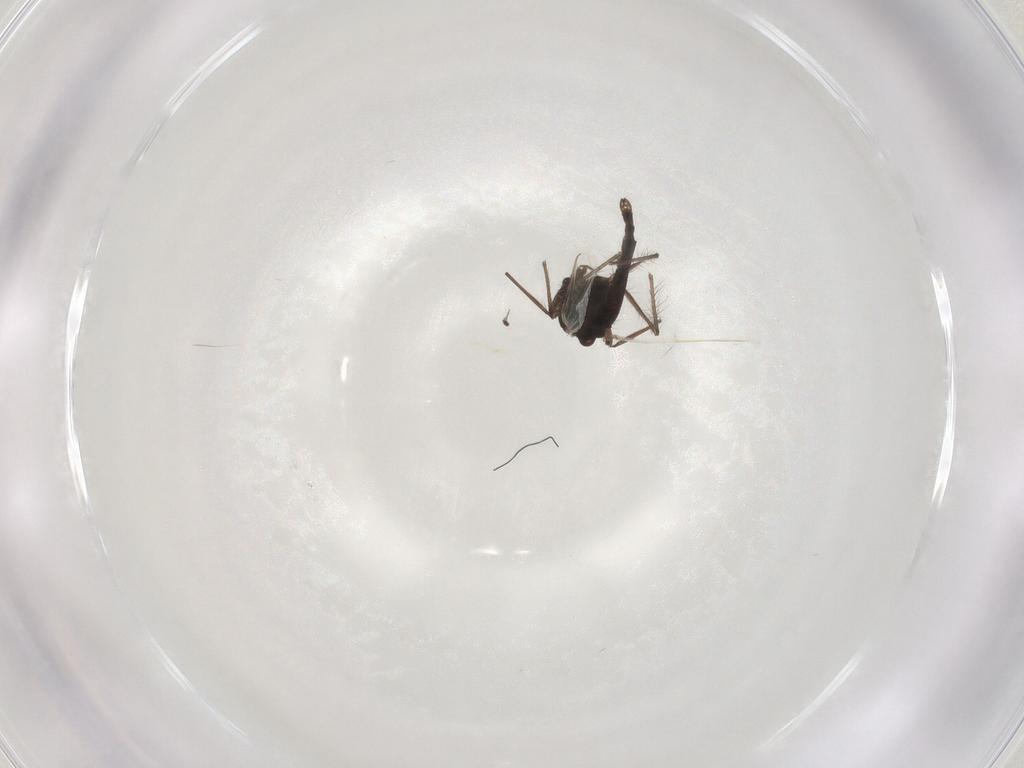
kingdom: Animalia
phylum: Arthropoda
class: Insecta
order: Diptera
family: Chironomidae
